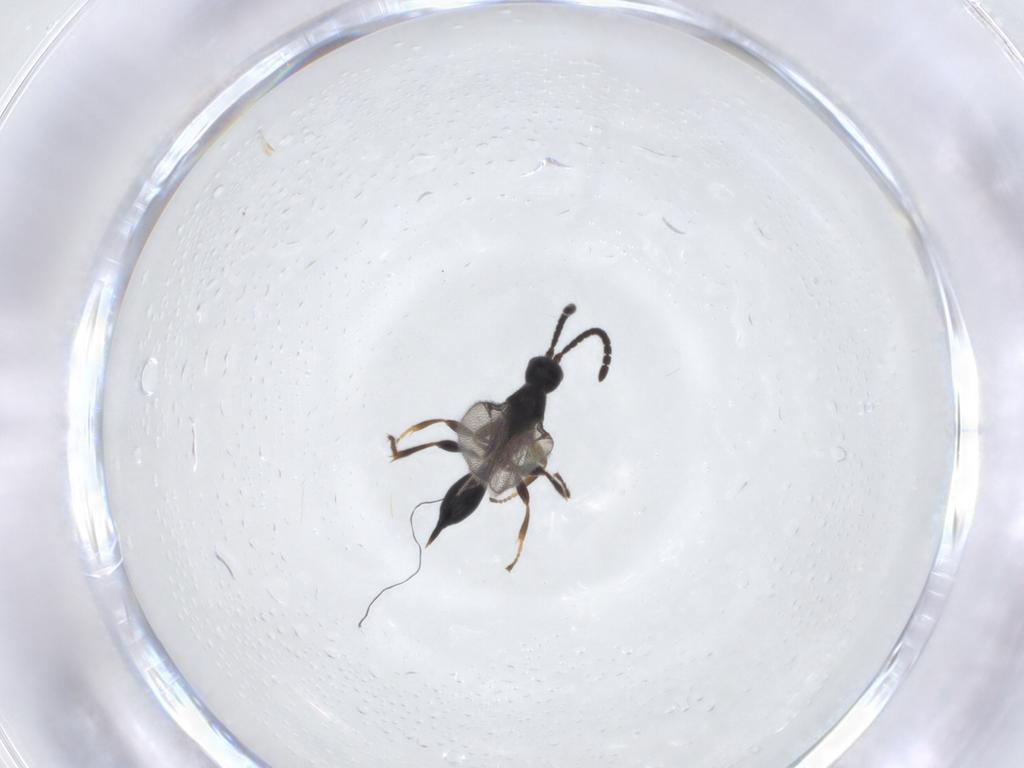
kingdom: Animalia
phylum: Arthropoda
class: Insecta
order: Hymenoptera
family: Proctotrupidae
